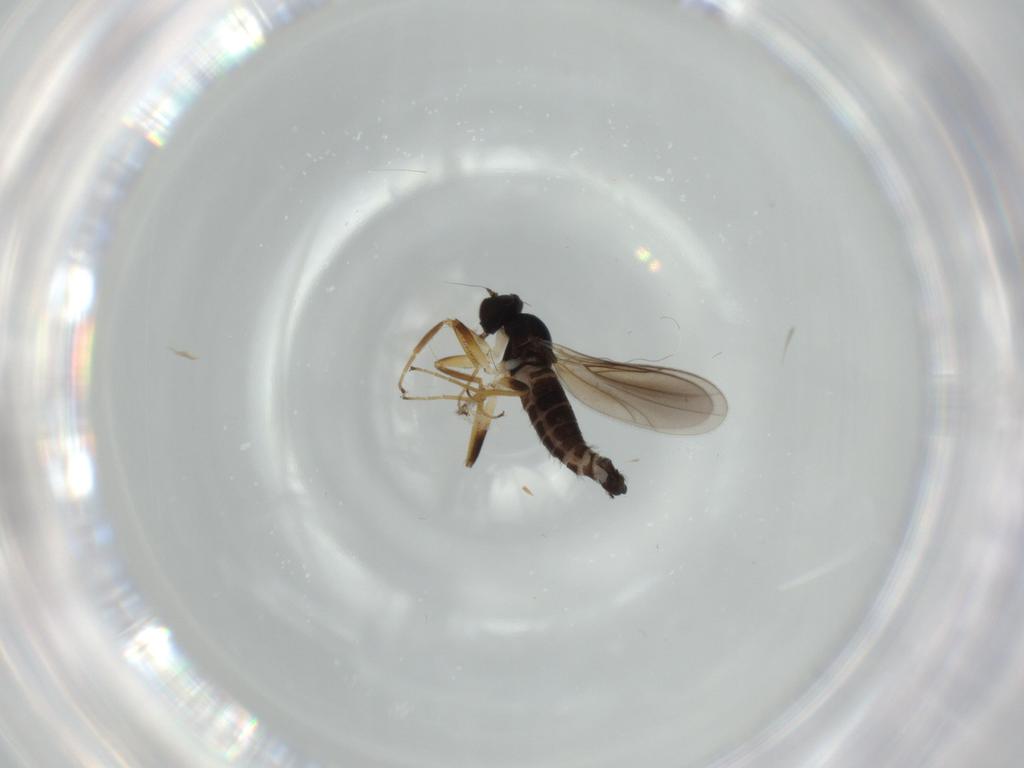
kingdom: Animalia
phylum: Arthropoda
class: Insecta
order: Diptera
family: Hybotidae
